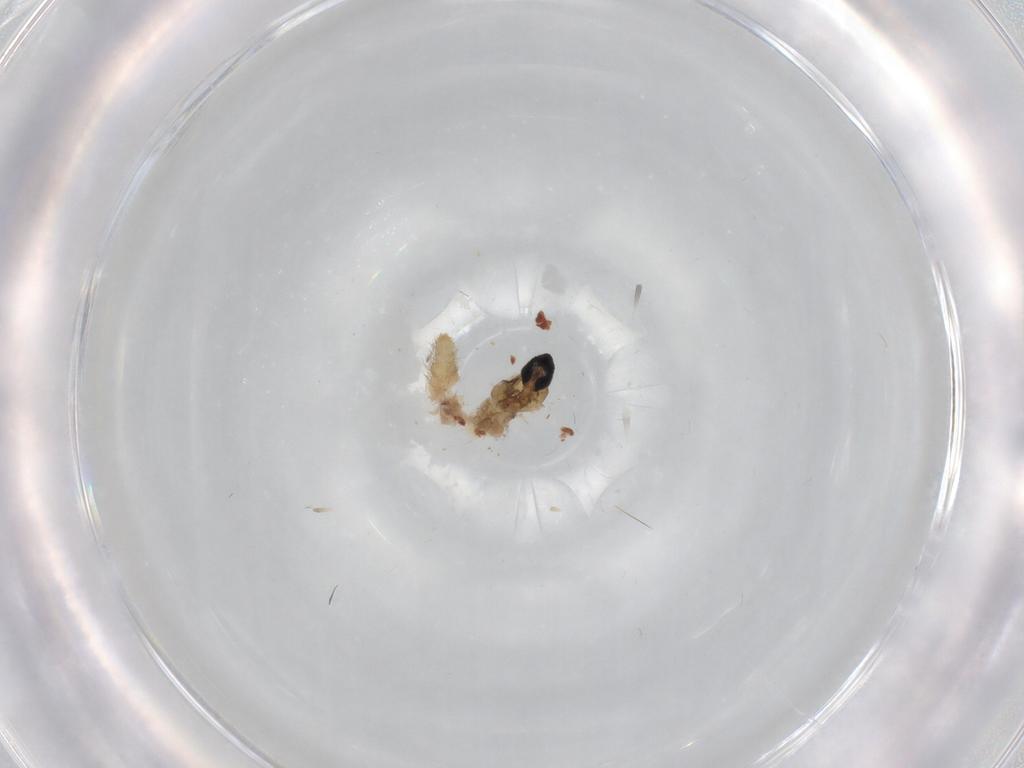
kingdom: Animalia
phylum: Arthropoda
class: Insecta
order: Diptera
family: Cecidomyiidae
